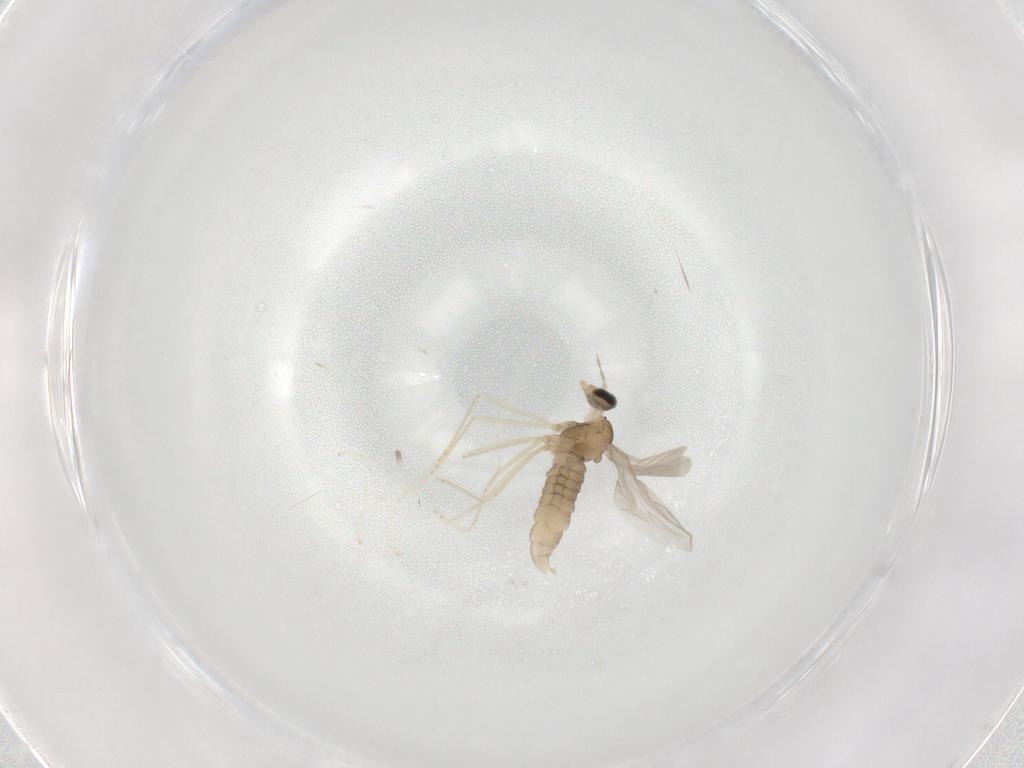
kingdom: Animalia
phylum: Arthropoda
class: Insecta
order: Diptera
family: Cecidomyiidae
